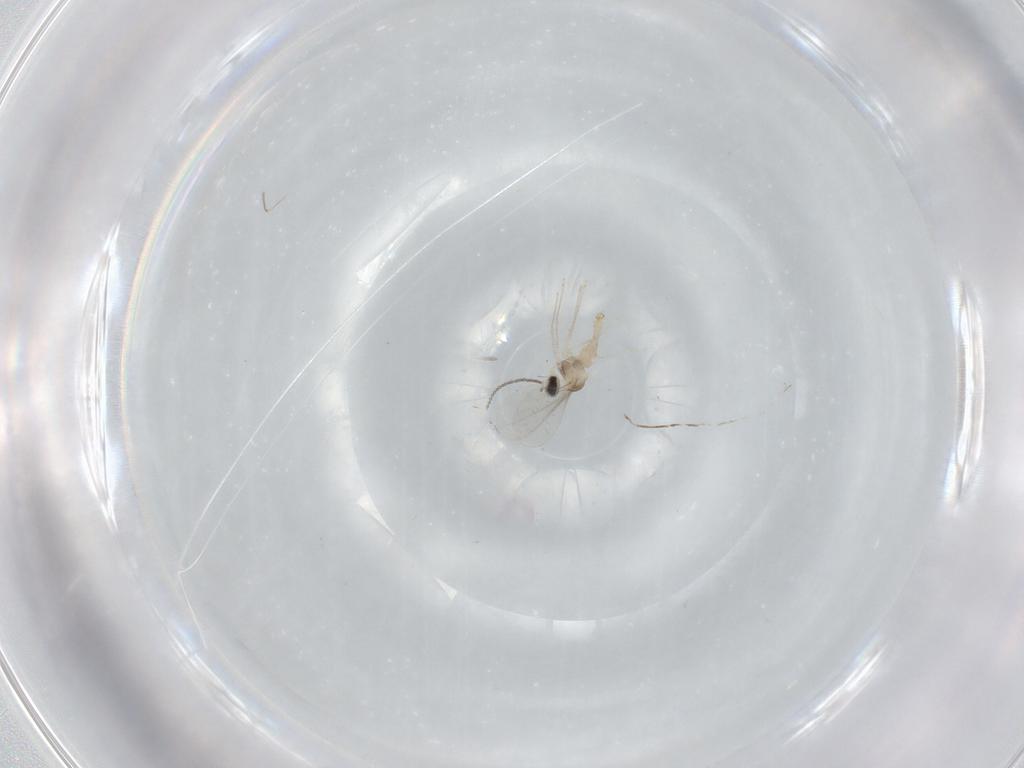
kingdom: Animalia
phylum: Arthropoda
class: Insecta
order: Diptera
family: Cecidomyiidae
